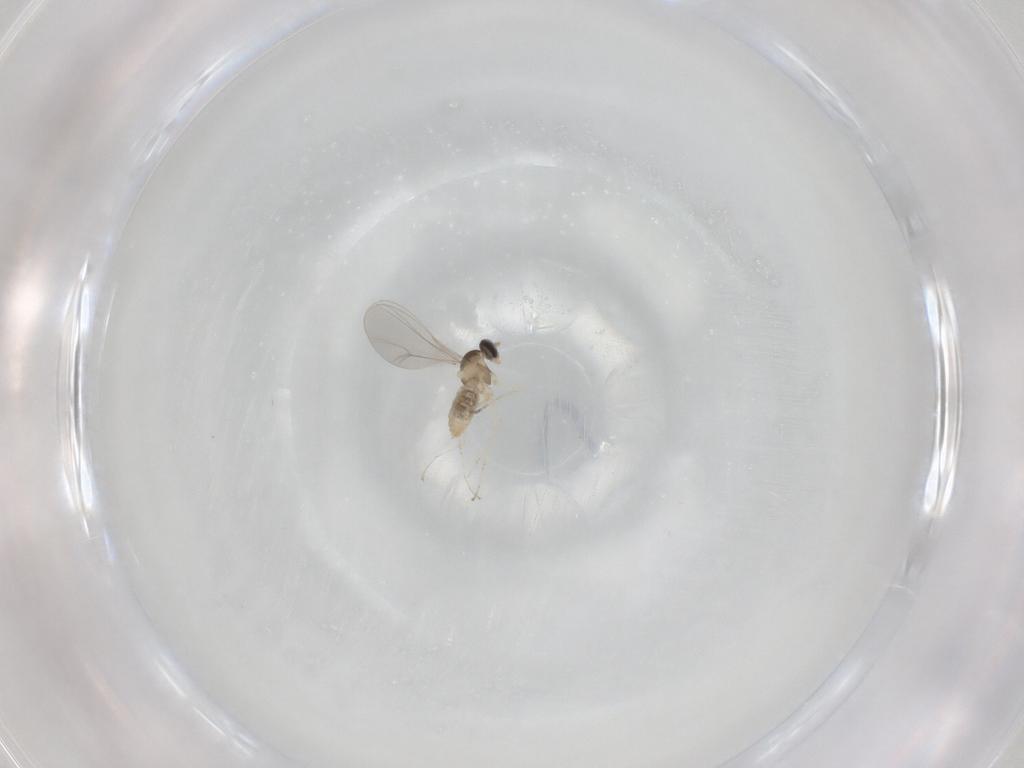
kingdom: Animalia
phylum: Arthropoda
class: Insecta
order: Diptera
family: Cecidomyiidae
